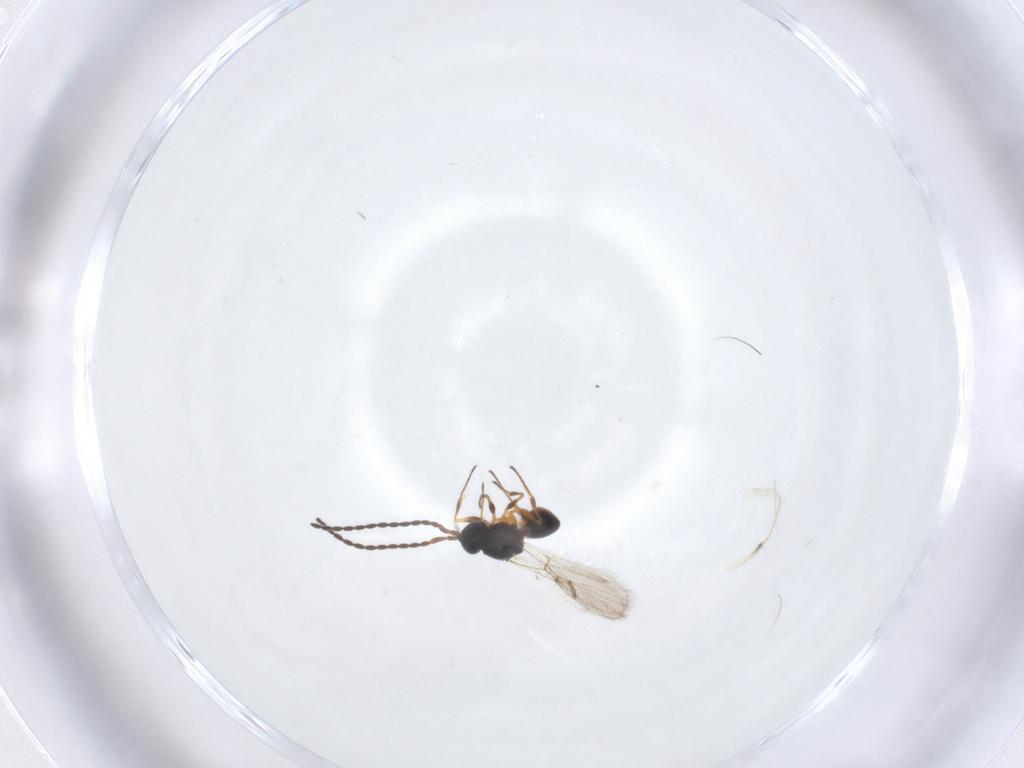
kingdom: Animalia
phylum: Arthropoda
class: Insecta
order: Hymenoptera
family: Figitidae
